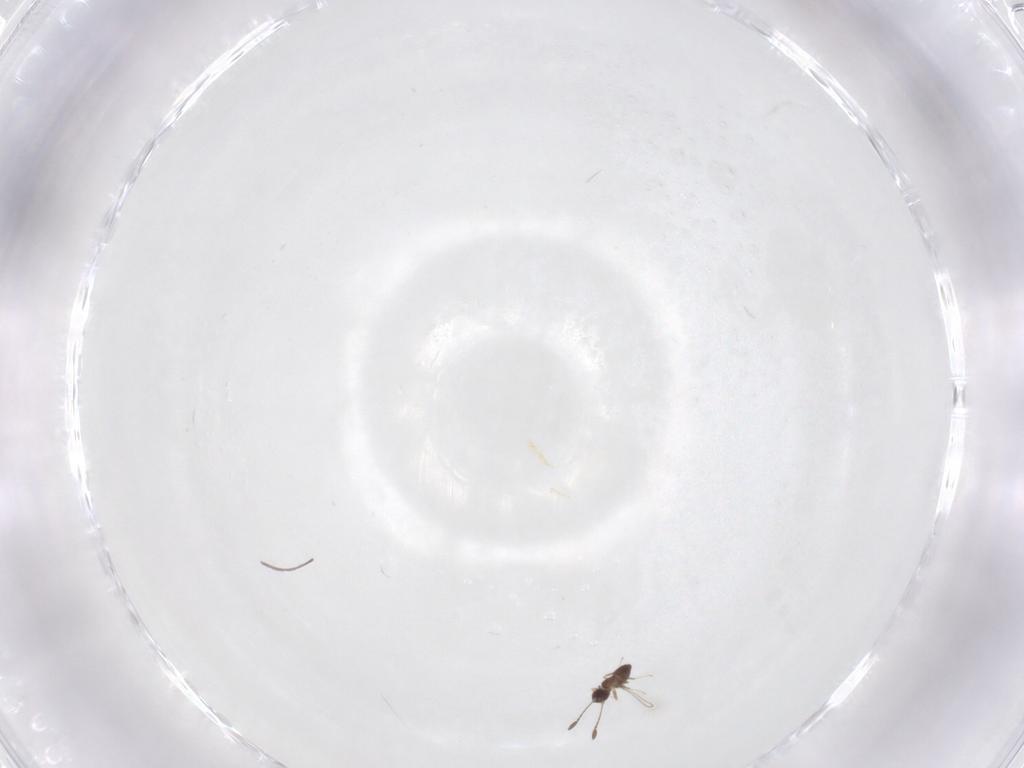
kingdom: Animalia
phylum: Arthropoda
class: Insecta
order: Hymenoptera
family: Mymaridae
